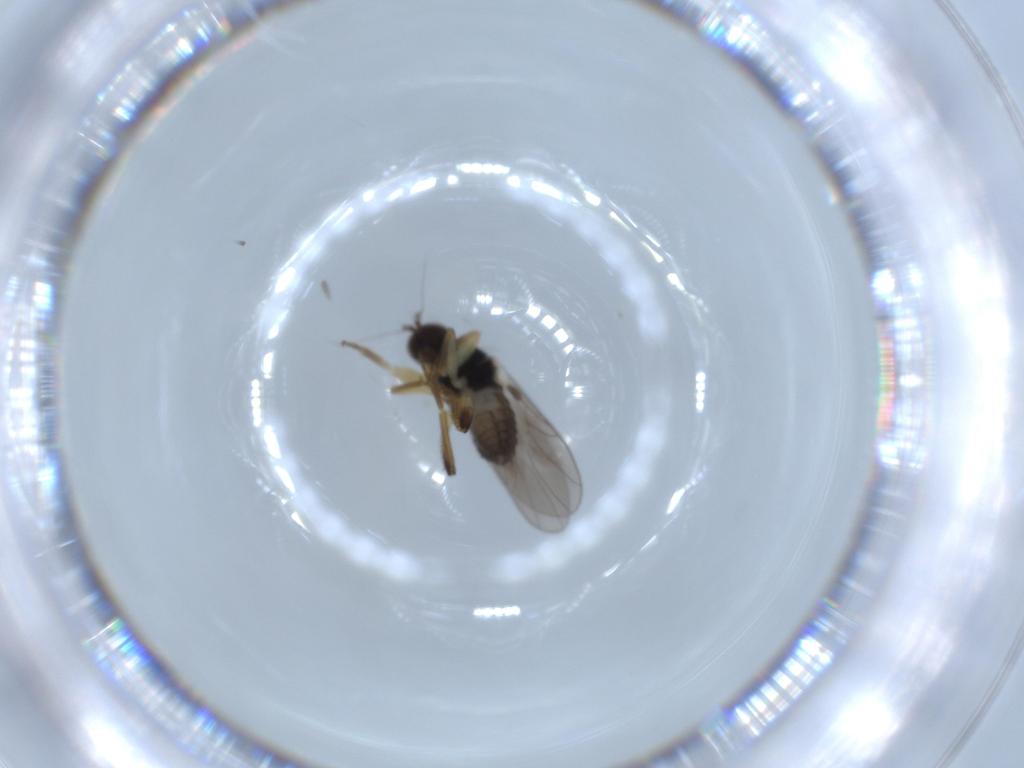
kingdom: Animalia
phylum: Arthropoda
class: Insecta
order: Diptera
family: Hybotidae
